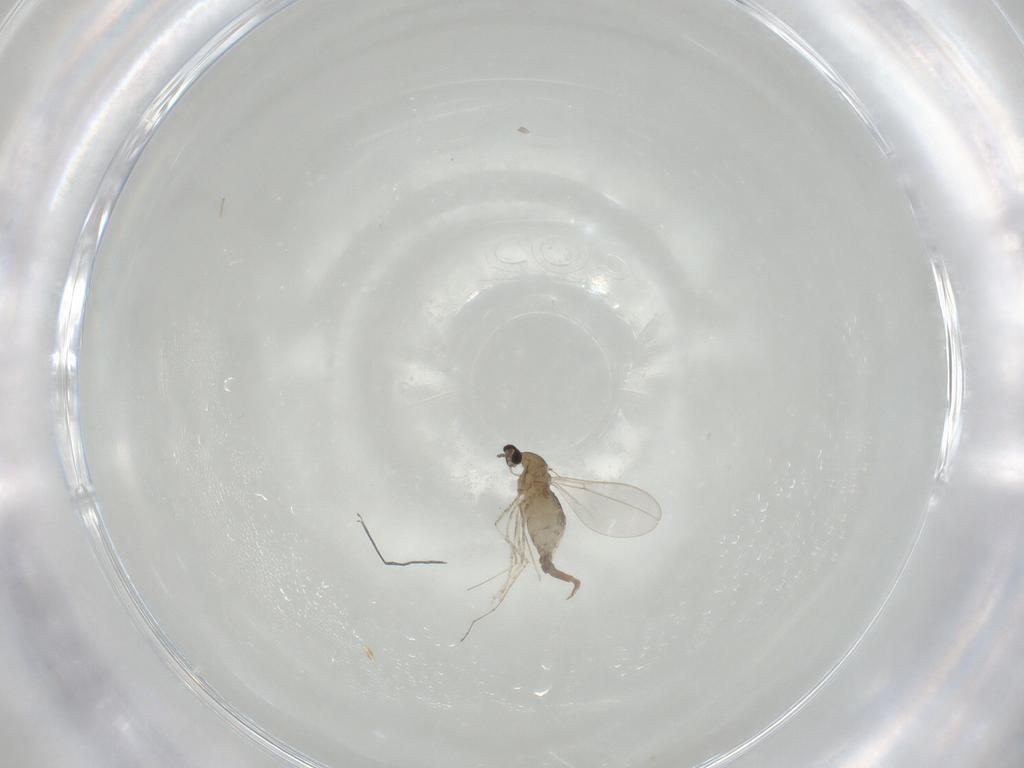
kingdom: Animalia
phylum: Arthropoda
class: Insecta
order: Diptera
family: Cecidomyiidae
